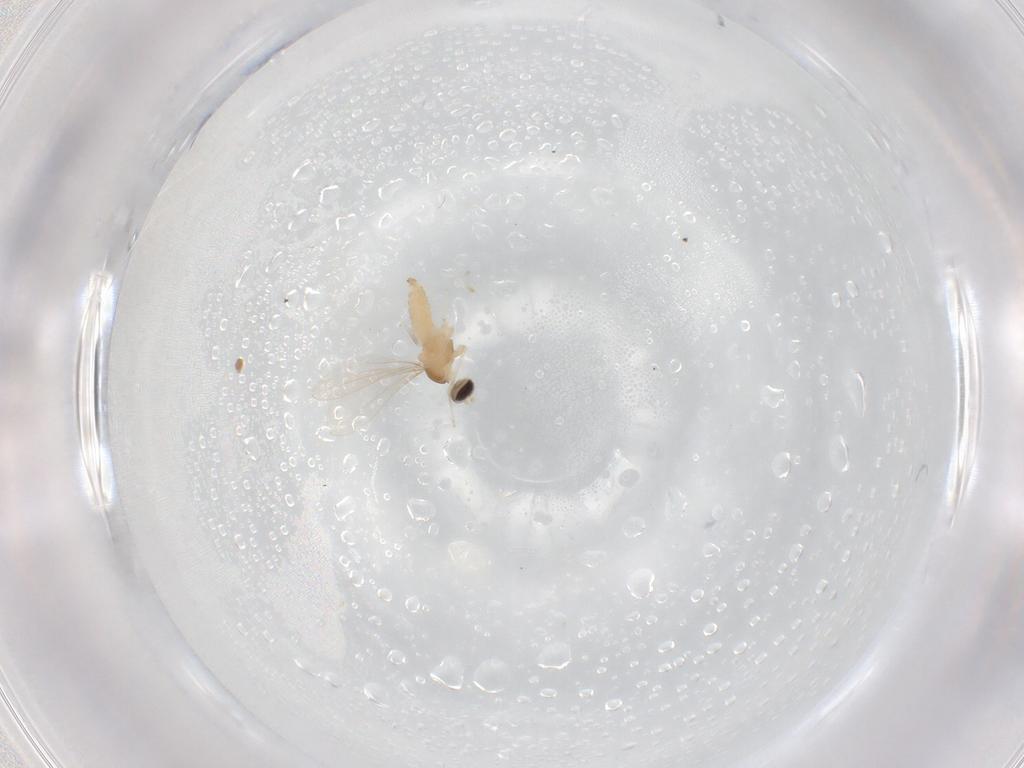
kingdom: Animalia
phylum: Arthropoda
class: Insecta
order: Diptera
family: Cecidomyiidae
